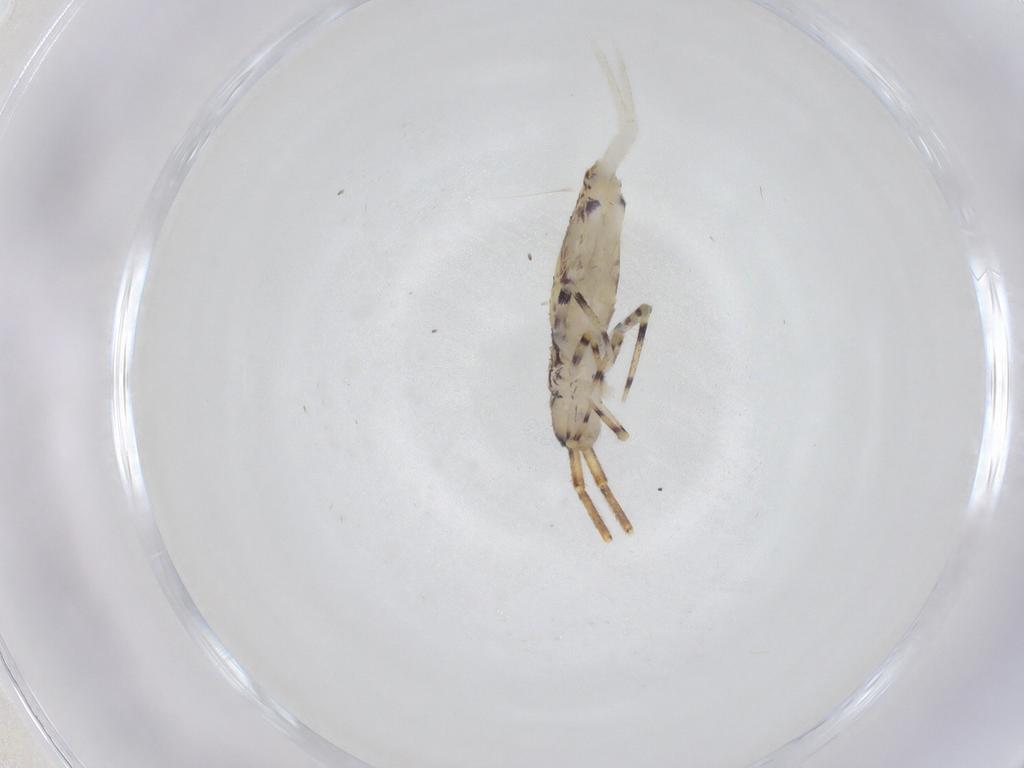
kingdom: Animalia
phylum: Arthropoda
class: Collembola
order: Entomobryomorpha
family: Entomobryidae
